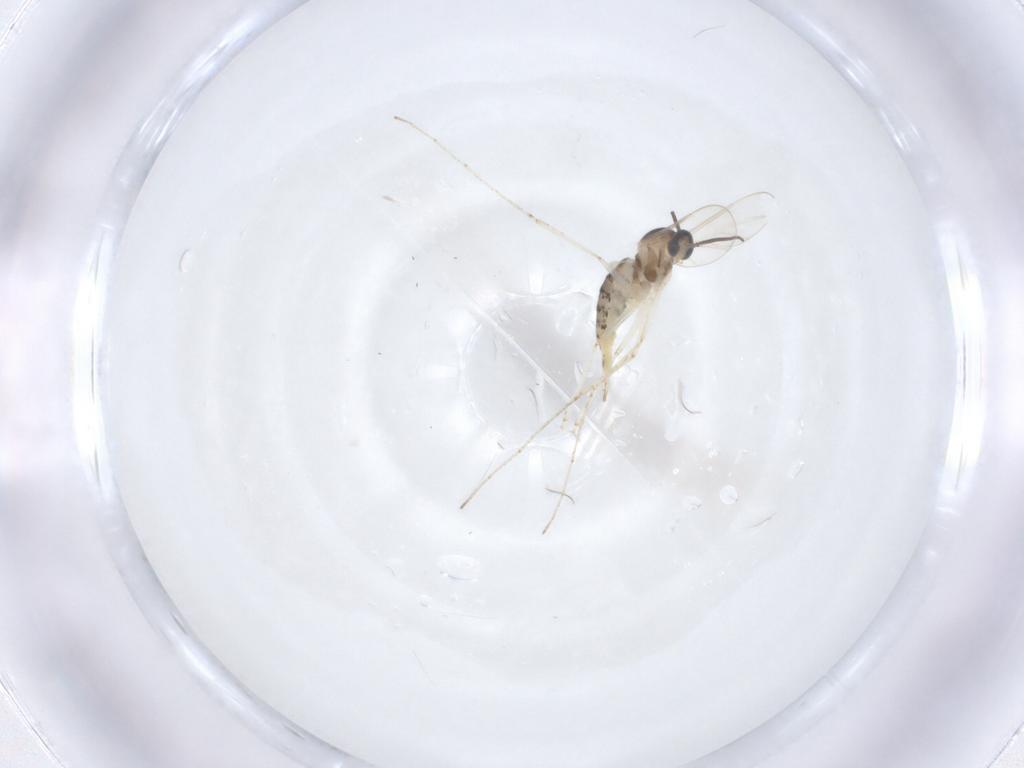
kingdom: Animalia
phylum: Arthropoda
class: Insecta
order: Diptera
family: Cecidomyiidae
